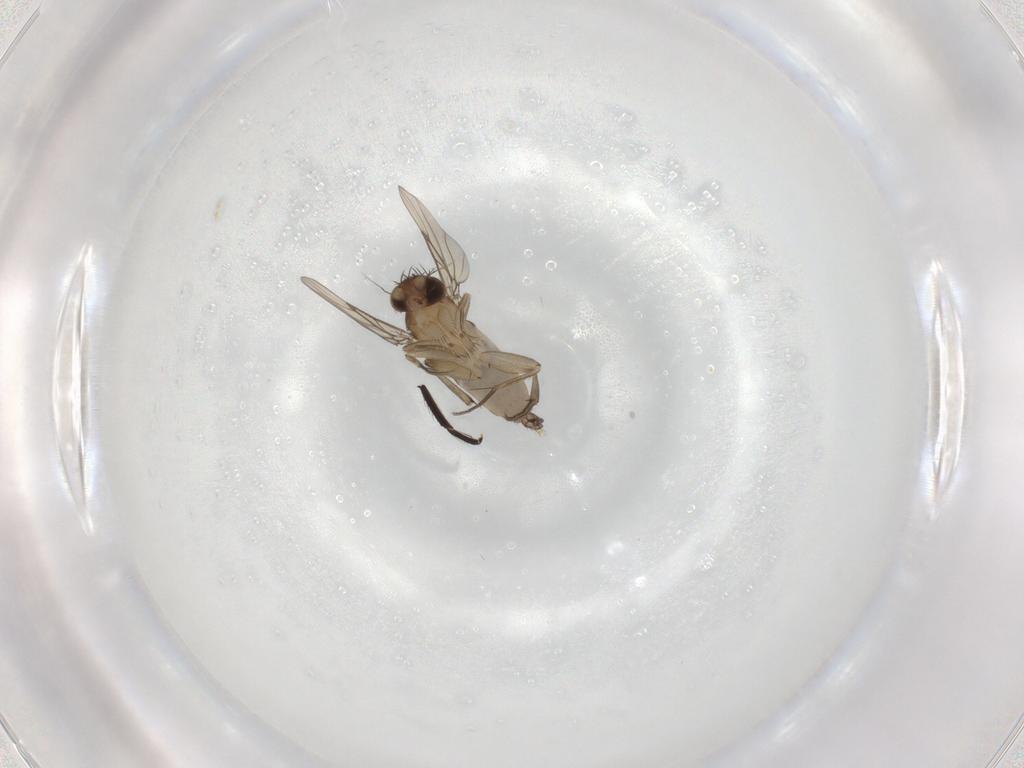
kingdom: Animalia
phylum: Arthropoda
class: Insecta
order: Diptera
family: Phoridae
